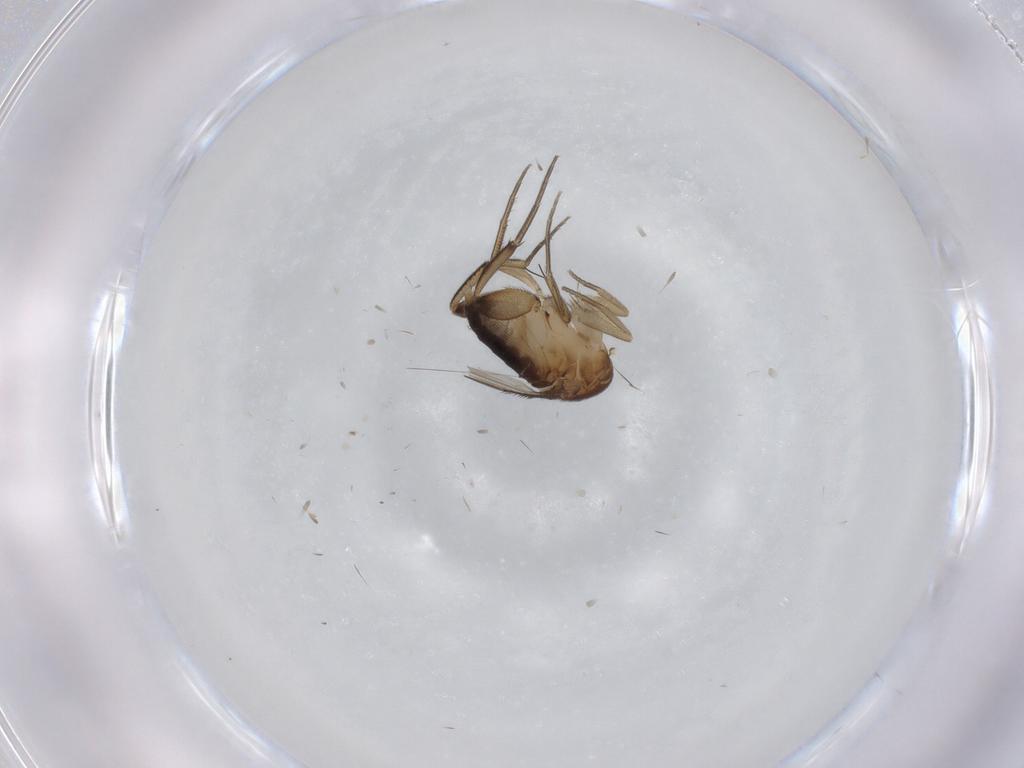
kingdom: Animalia
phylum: Arthropoda
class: Insecta
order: Diptera
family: Phoridae
